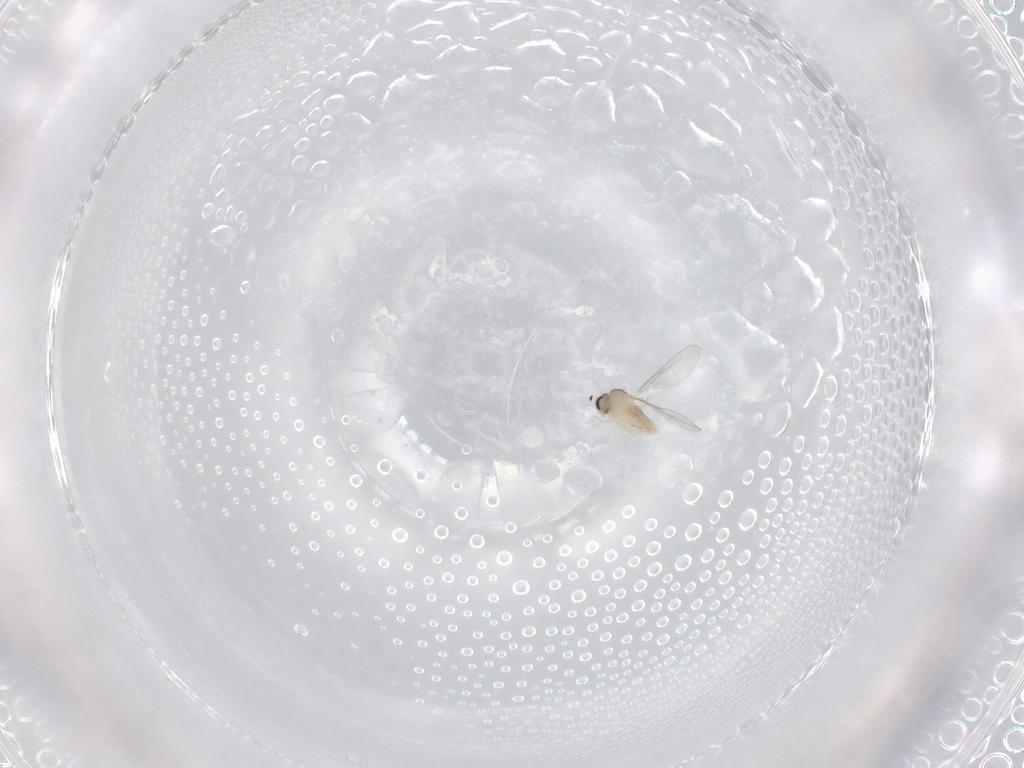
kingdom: Animalia
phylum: Arthropoda
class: Insecta
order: Diptera
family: Cecidomyiidae
